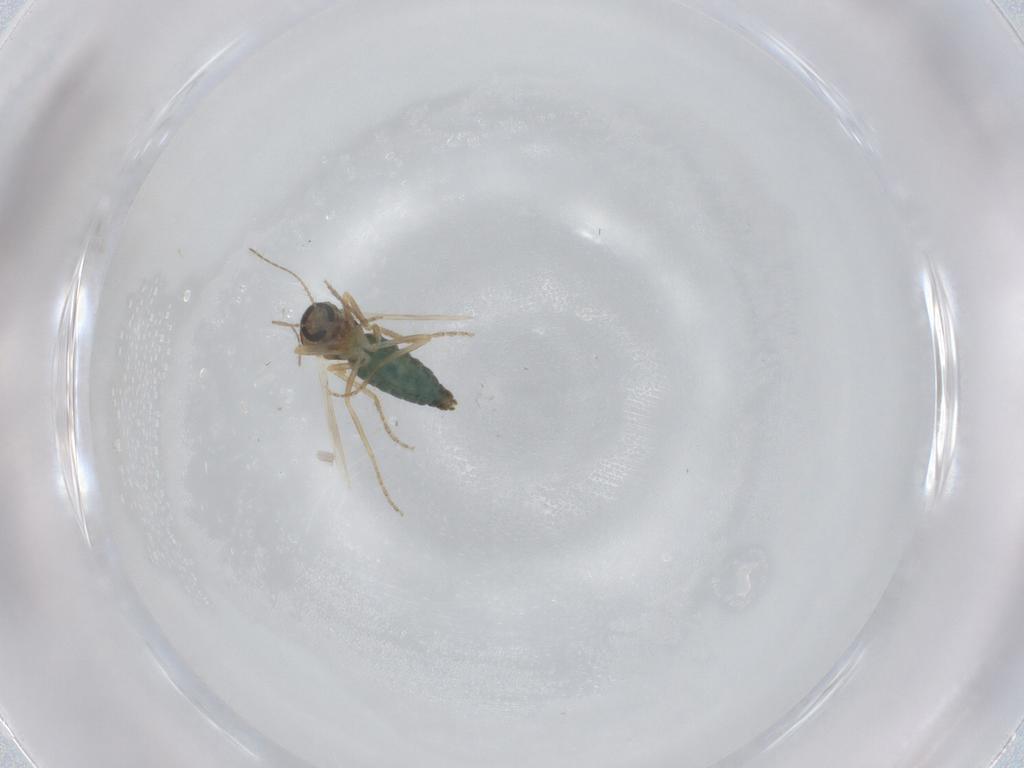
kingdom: Animalia
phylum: Arthropoda
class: Insecta
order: Diptera
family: Ceratopogonidae
